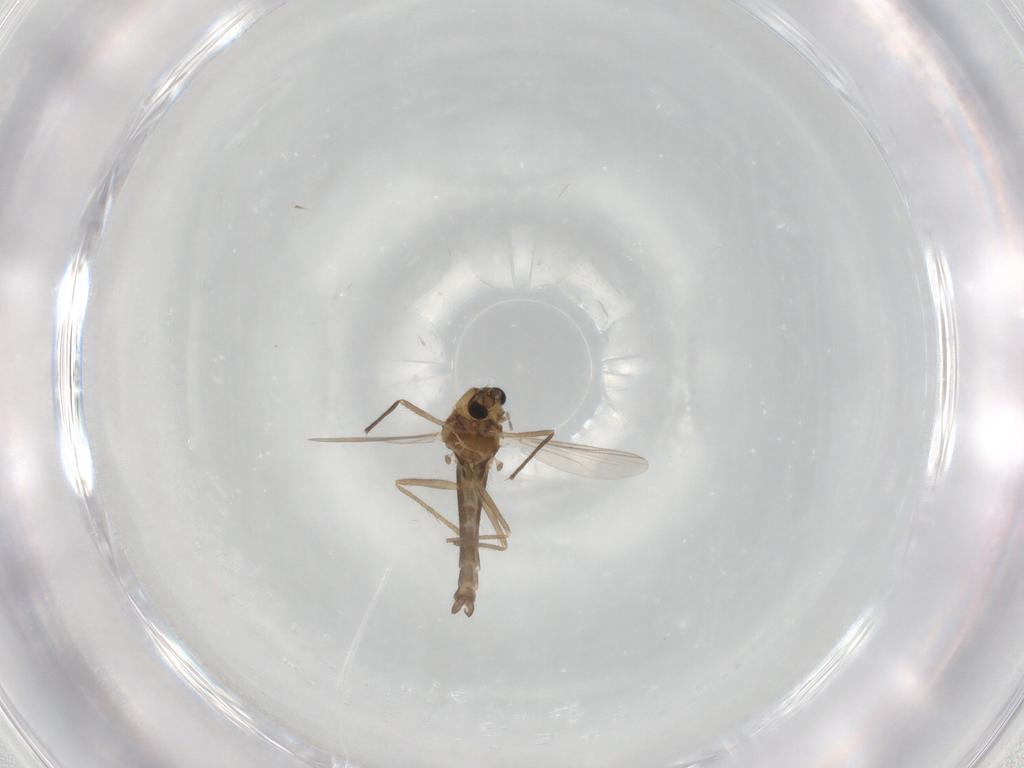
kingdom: Animalia
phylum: Arthropoda
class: Insecta
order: Diptera
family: Chironomidae
